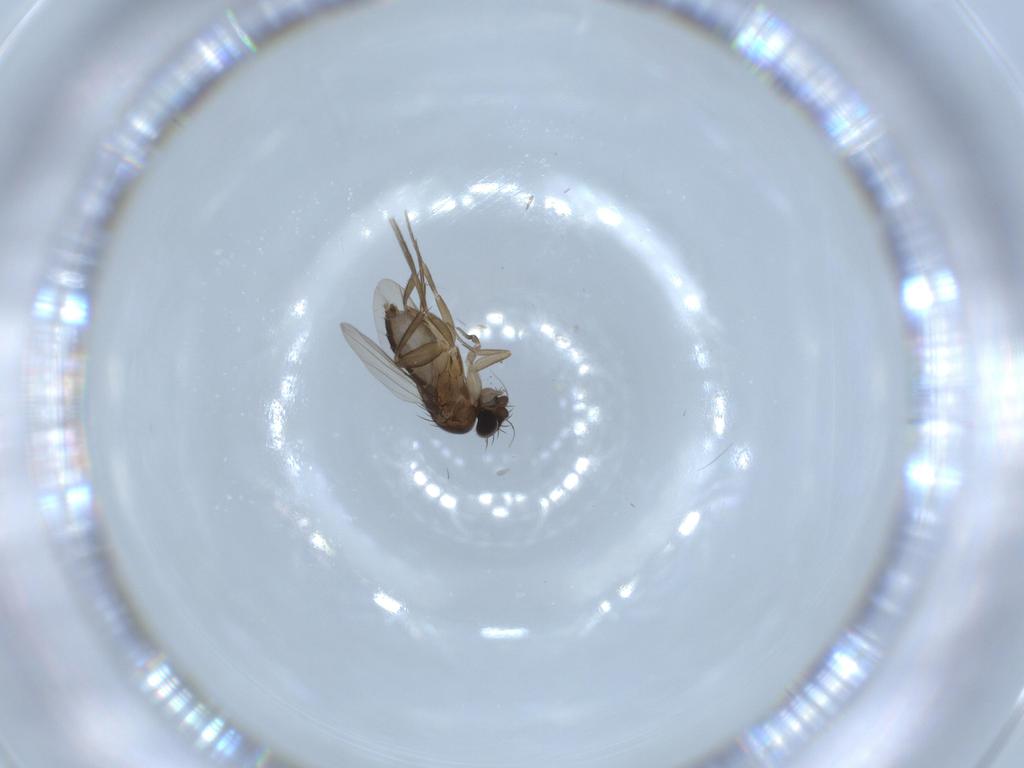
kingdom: Animalia
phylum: Arthropoda
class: Insecta
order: Diptera
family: Phoridae
